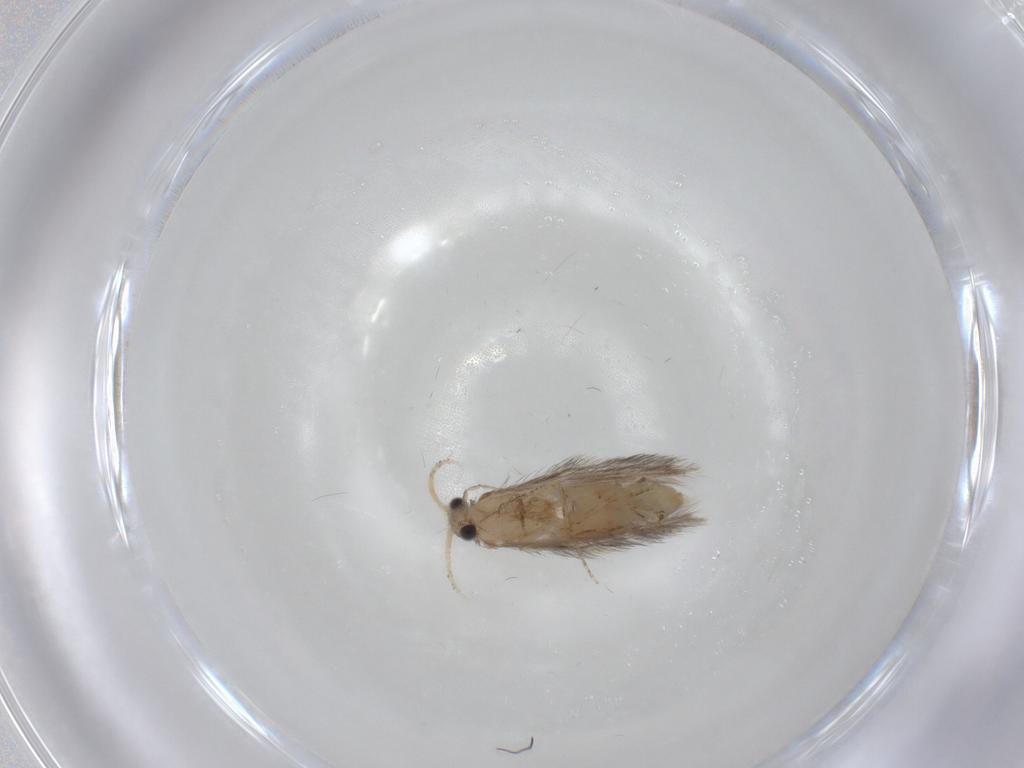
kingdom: Animalia
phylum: Arthropoda
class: Insecta
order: Trichoptera
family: Hydroptilidae
